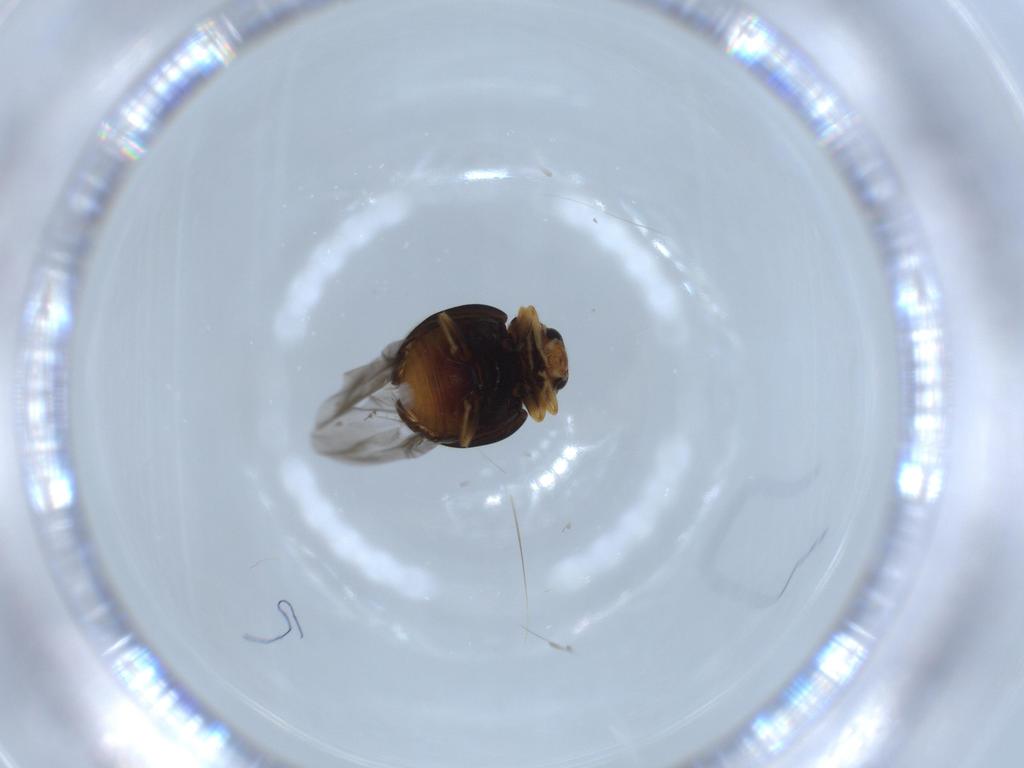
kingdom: Animalia
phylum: Arthropoda
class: Insecta
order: Coleoptera
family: Coccinellidae
